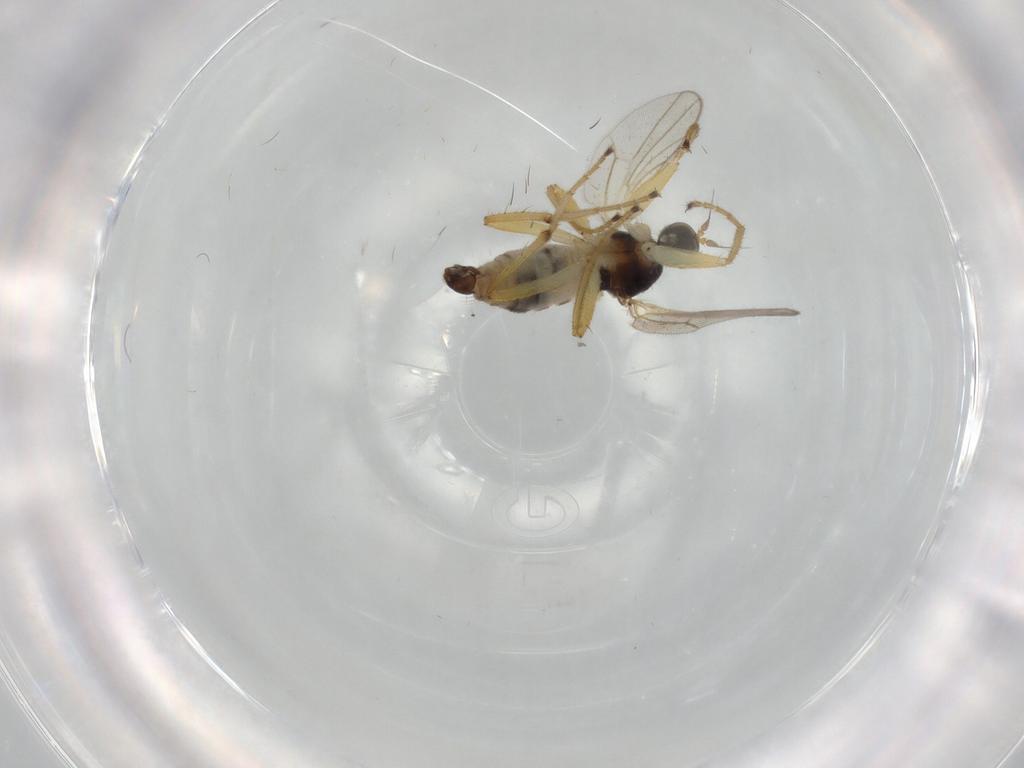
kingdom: Animalia
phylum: Arthropoda
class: Insecta
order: Diptera
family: Hybotidae
